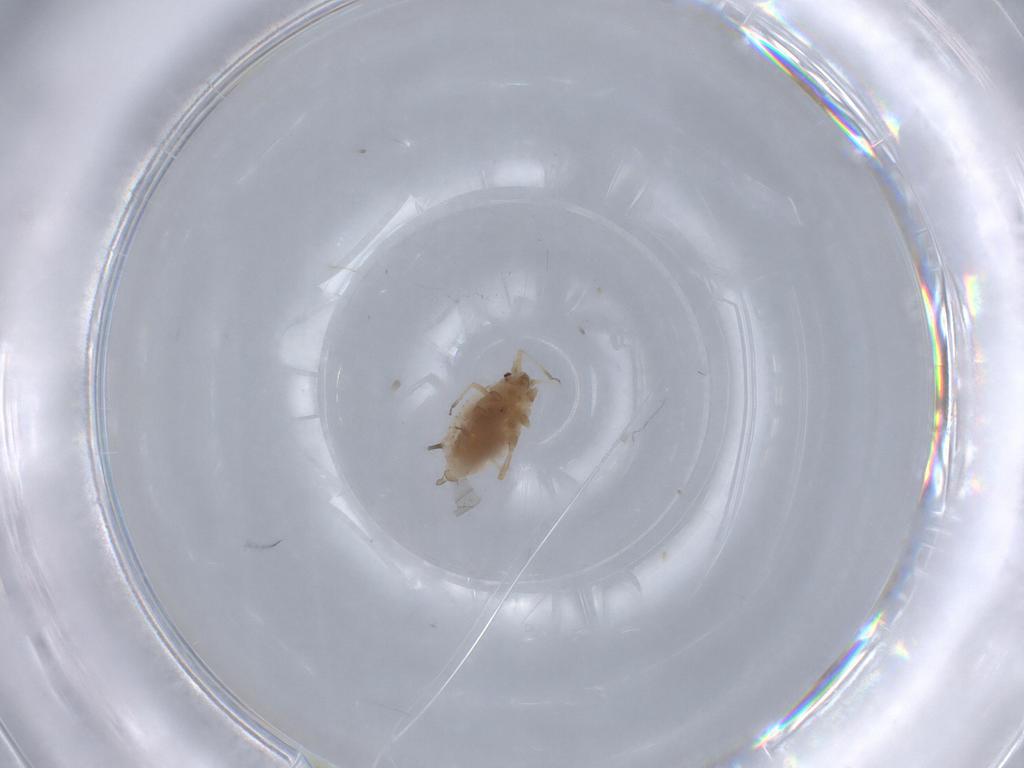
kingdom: Animalia
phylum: Arthropoda
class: Insecta
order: Hemiptera
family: Aphididae
